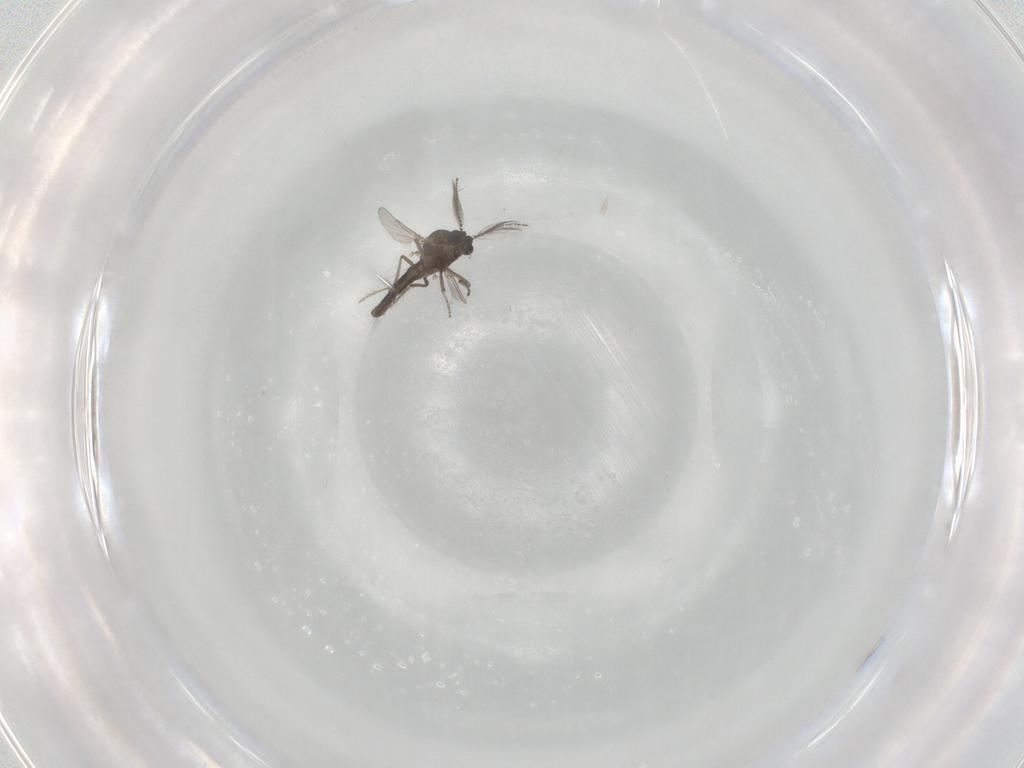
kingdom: Animalia
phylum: Arthropoda
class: Insecta
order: Diptera
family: Ceratopogonidae
